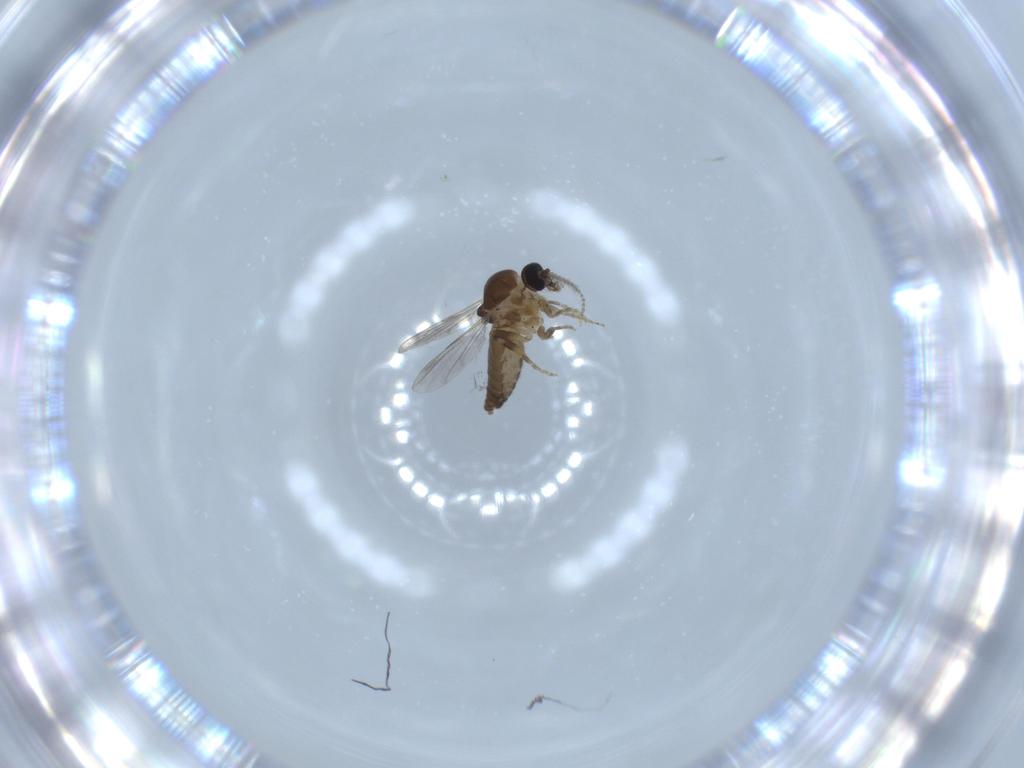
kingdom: Animalia
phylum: Arthropoda
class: Insecta
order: Diptera
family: Ceratopogonidae
